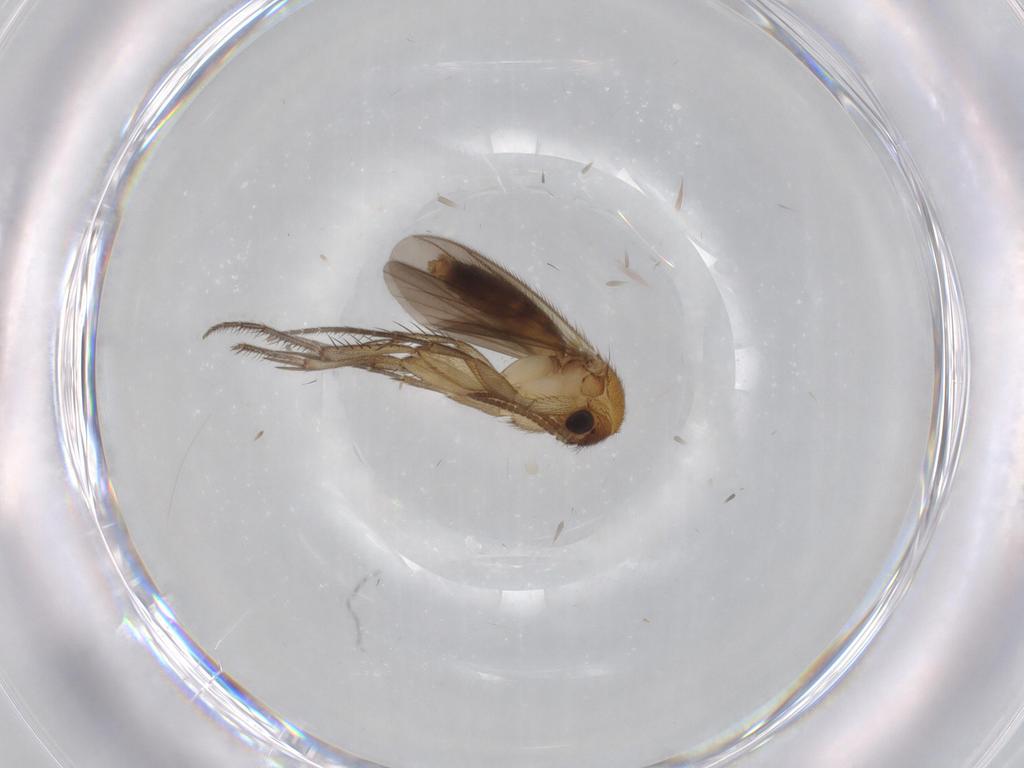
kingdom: Animalia
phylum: Arthropoda
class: Insecta
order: Diptera
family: Mycetophilidae
